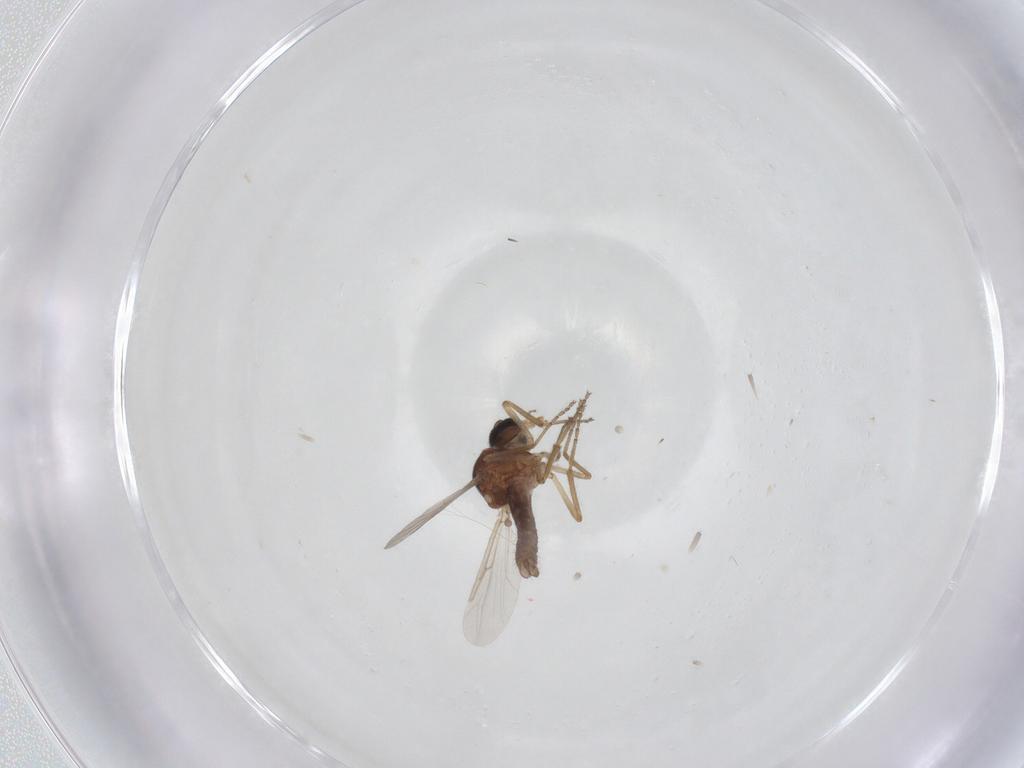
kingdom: Animalia
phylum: Arthropoda
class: Insecta
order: Diptera
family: Ceratopogonidae
